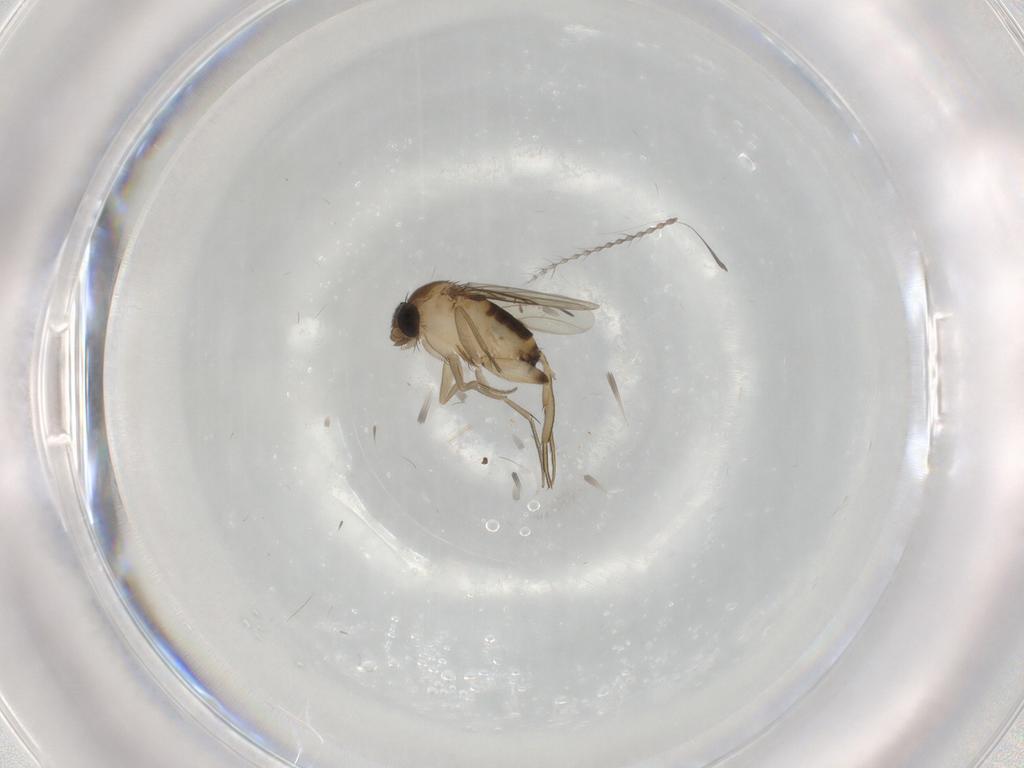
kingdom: Animalia
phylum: Arthropoda
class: Insecta
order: Diptera
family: Phoridae
